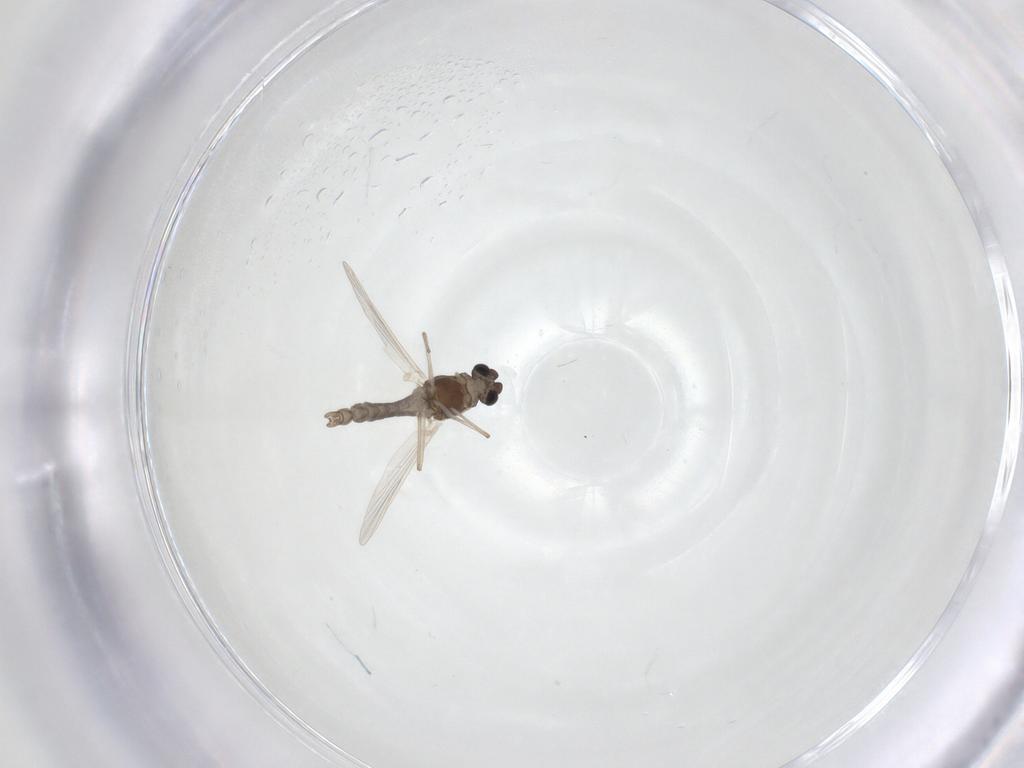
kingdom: Animalia
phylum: Arthropoda
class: Insecta
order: Diptera
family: Chironomidae
